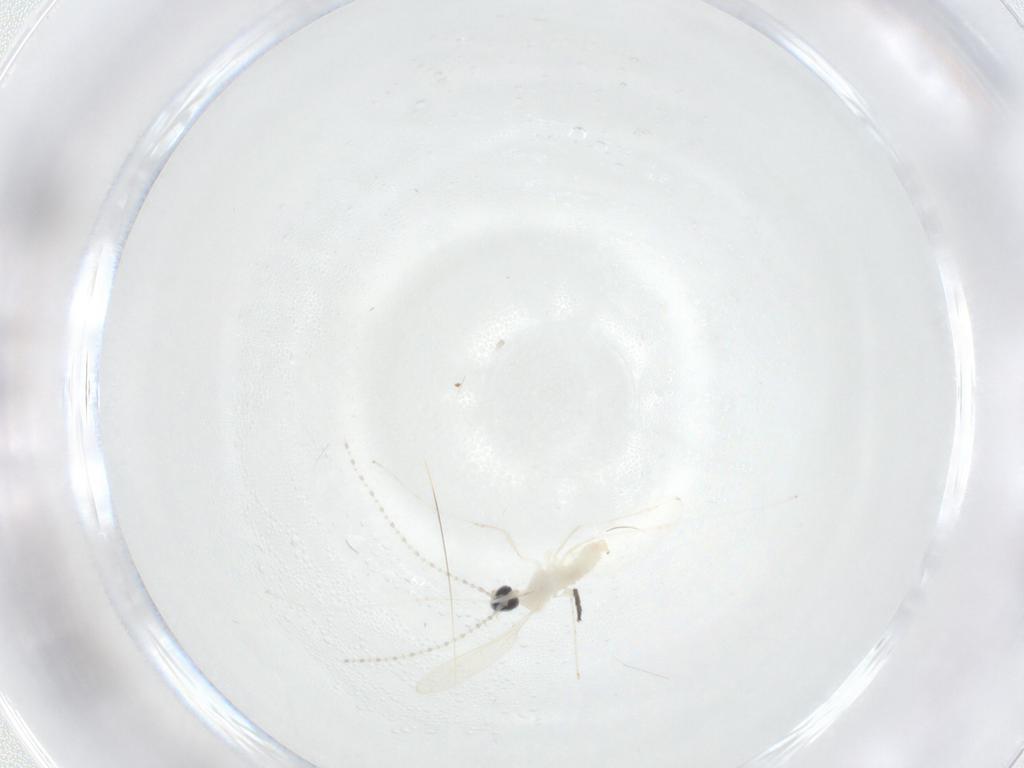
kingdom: Animalia
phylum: Arthropoda
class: Insecta
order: Diptera
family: Cecidomyiidae
